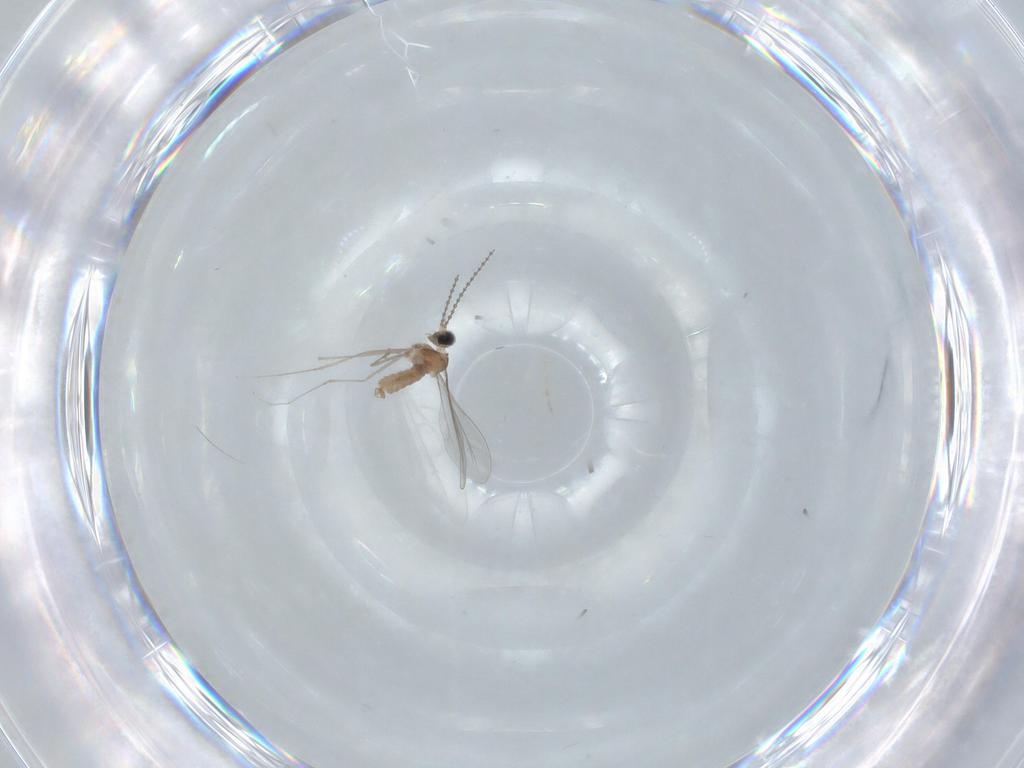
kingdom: Animalia
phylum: Arthropoda
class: Insecta
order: Diptera
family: Cecidomyiidae
